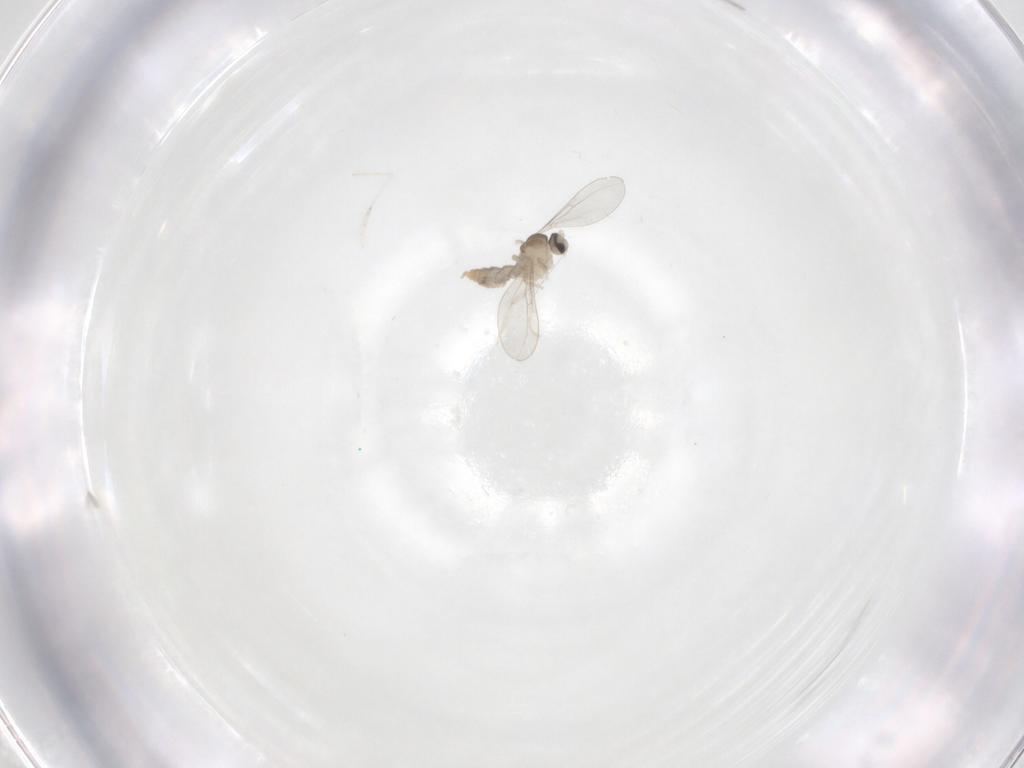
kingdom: Animalia
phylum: Arthropoda
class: Insecta
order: Diptera
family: Cecidomyiidae
